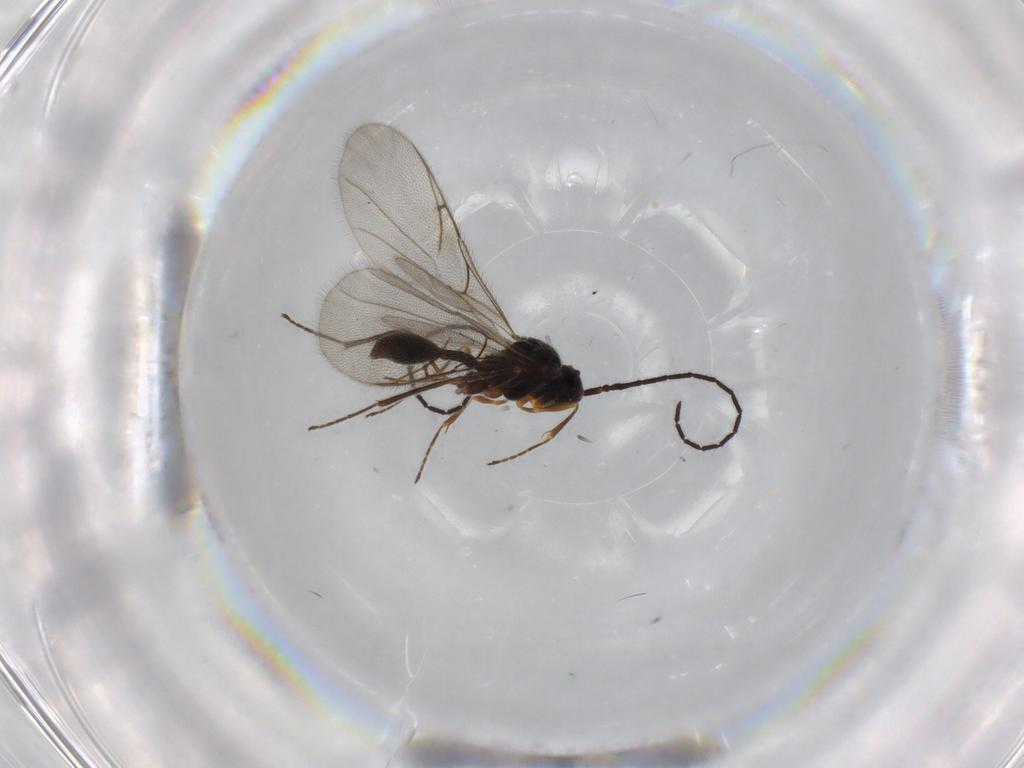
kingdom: Animalia
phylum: Arthropoda
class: Insecta
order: Hymenoptera
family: Diapriidae
